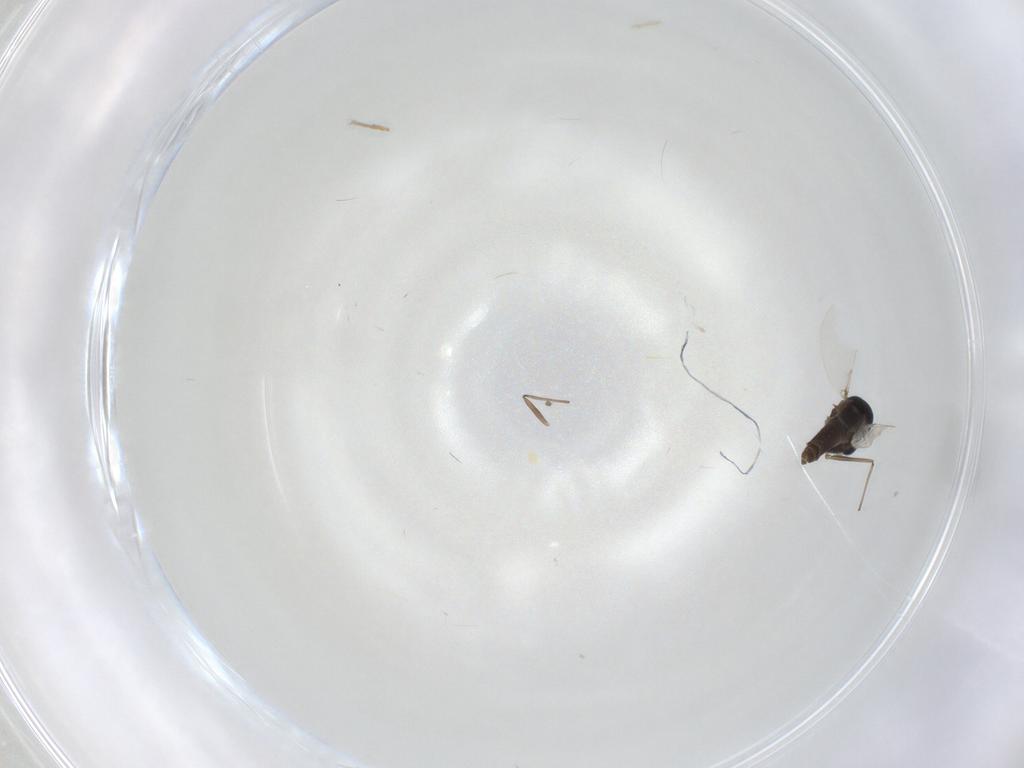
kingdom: Animalia
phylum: Arthropoda
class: Insecta
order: Diptera
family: Chironomidae
